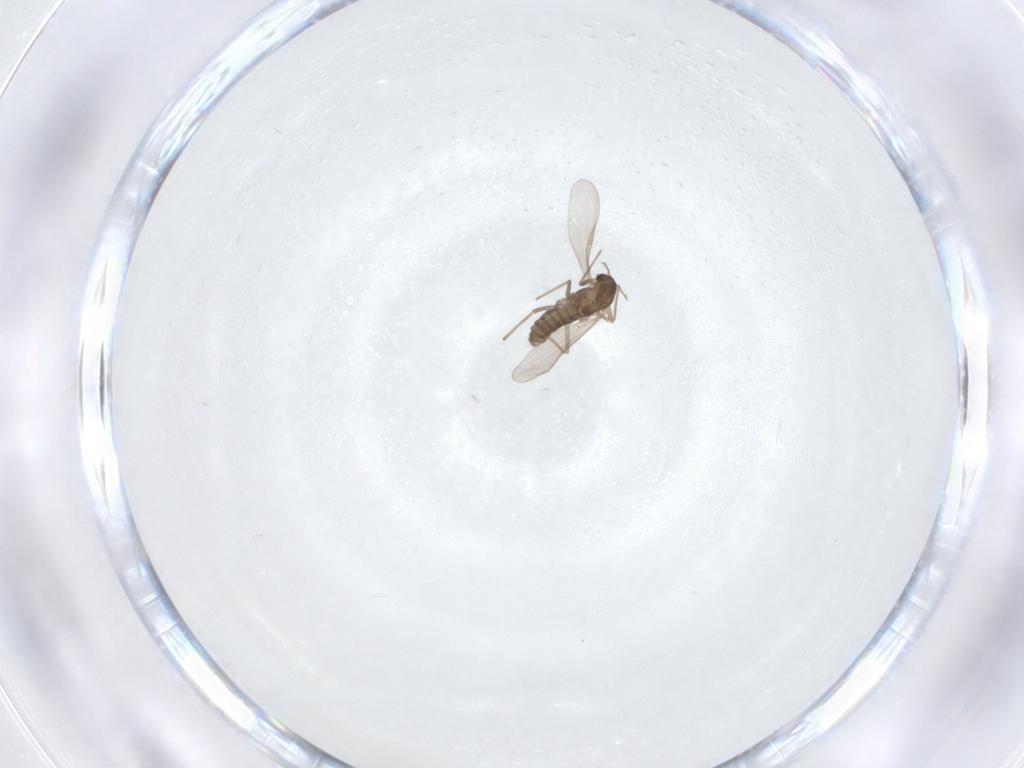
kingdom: Animalia
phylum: Arthropoda
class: Insecta
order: Diptera
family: Chironomidae
